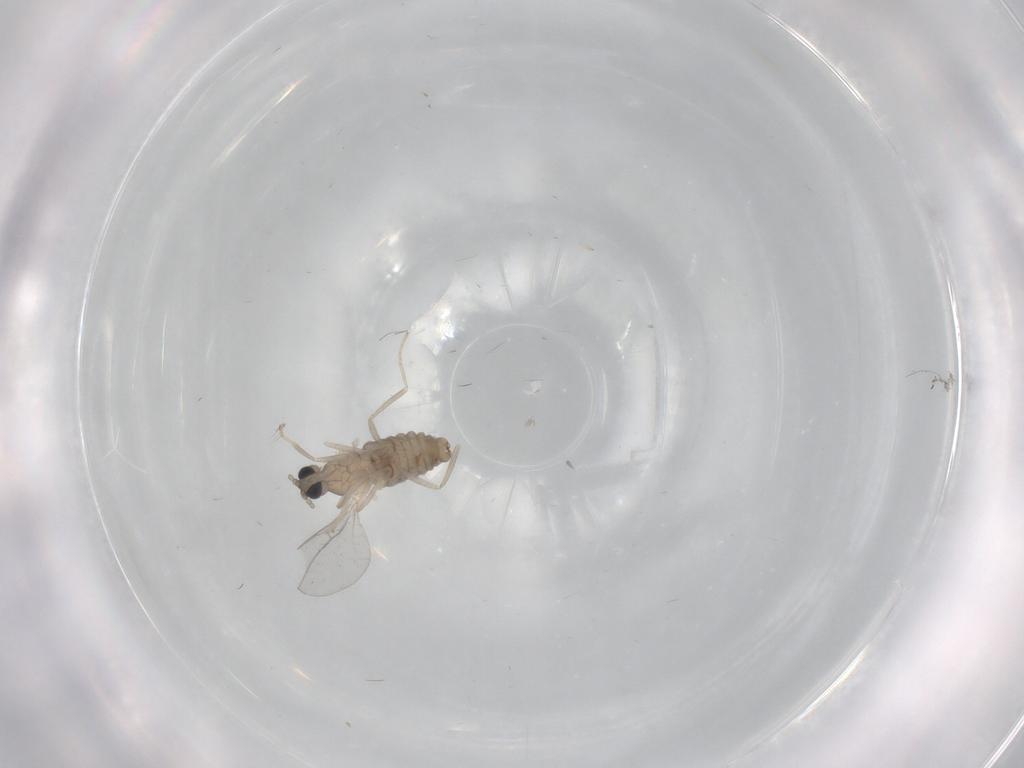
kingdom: Animalia
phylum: Arthropoda
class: Insecta
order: Diptera
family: Cecidomyiidae
